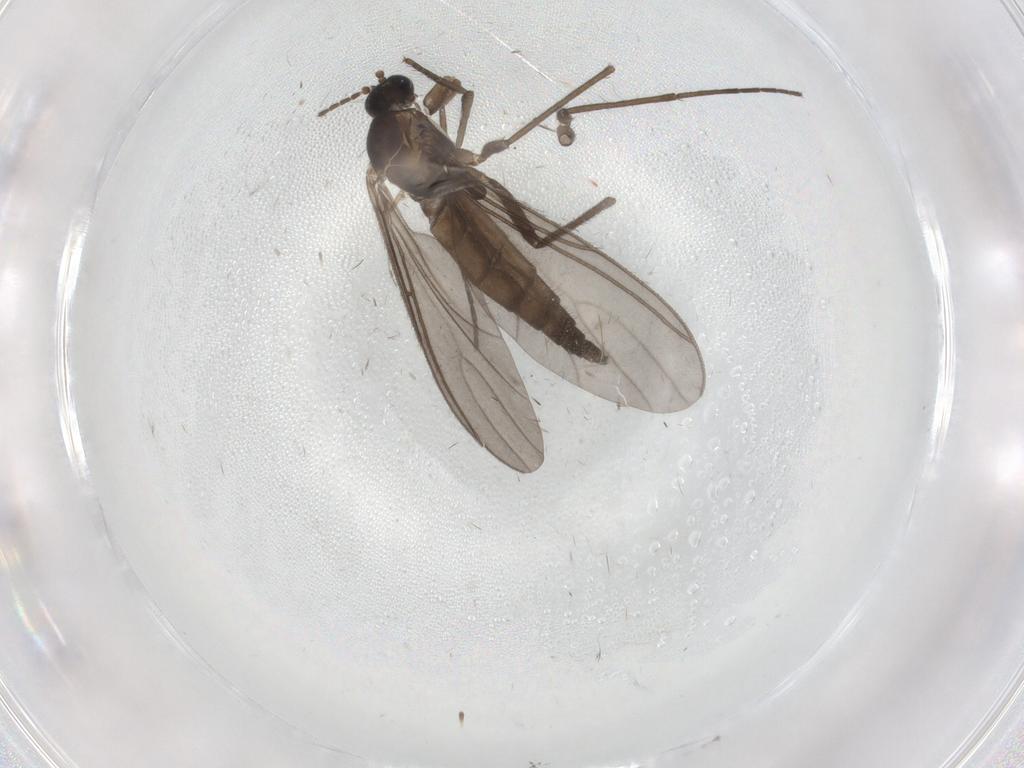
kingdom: Animalia
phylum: Arthropoda
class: Insecta
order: Diptera
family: Sciaridae
